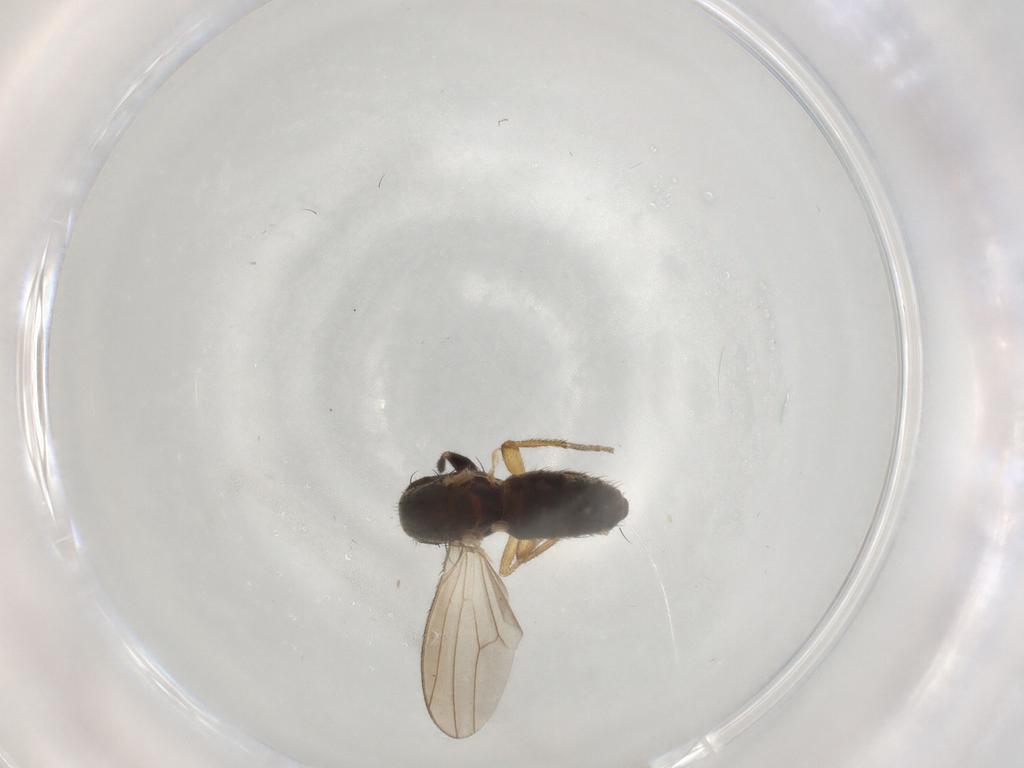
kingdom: Animalia
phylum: Arthropoda
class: Insecta
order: Diptera
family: Heleomyzidae
